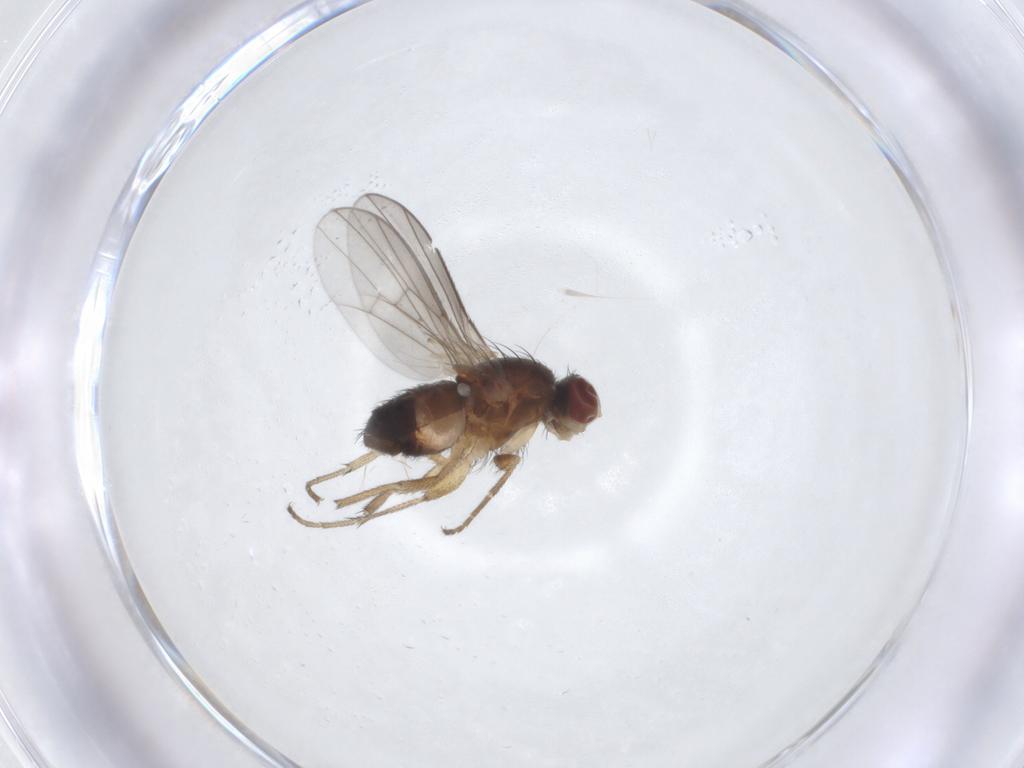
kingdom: Animalia
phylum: Arthropoda
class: Insecta
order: Diptera
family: Heleomyzidae
